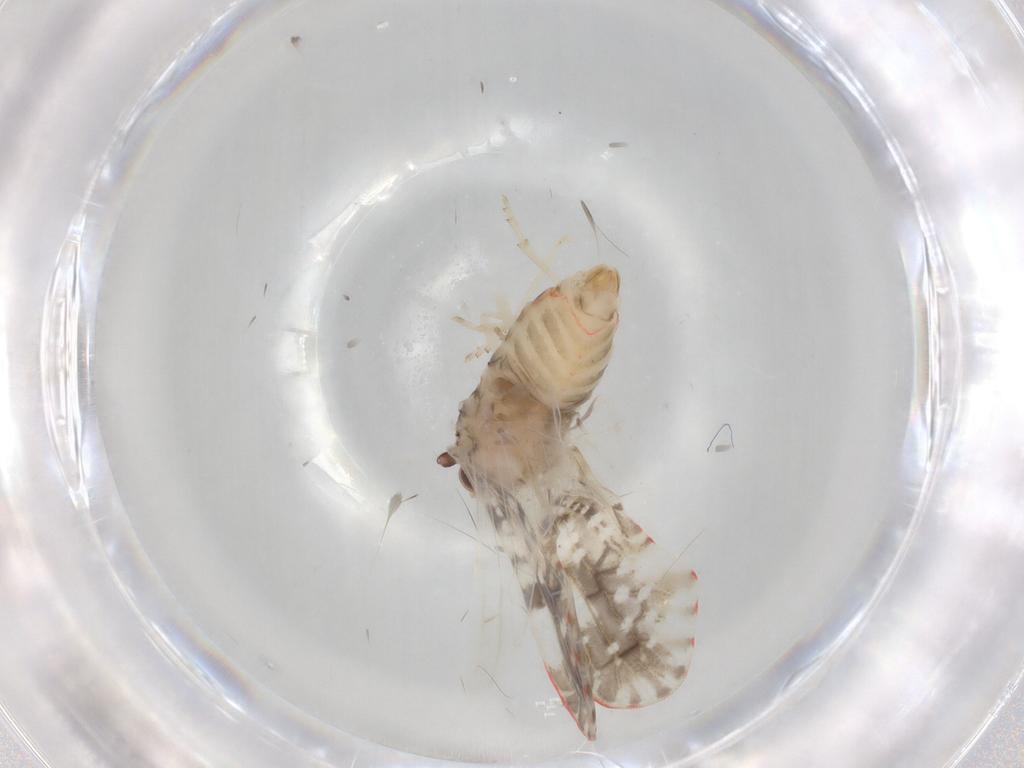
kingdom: Animalia
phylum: Arthropoda
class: Insecta
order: Hemiptera
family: Derbidae
